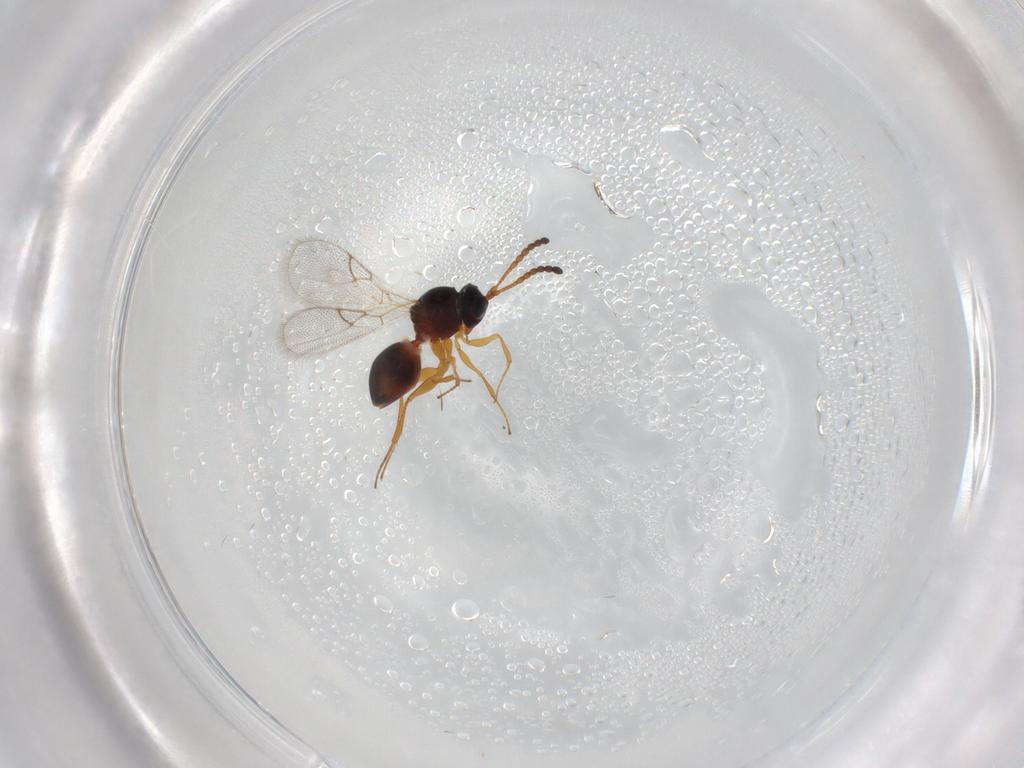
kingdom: Animalia
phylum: Arthropoda
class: Insecta
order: Hymenoptera
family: Figitidae
